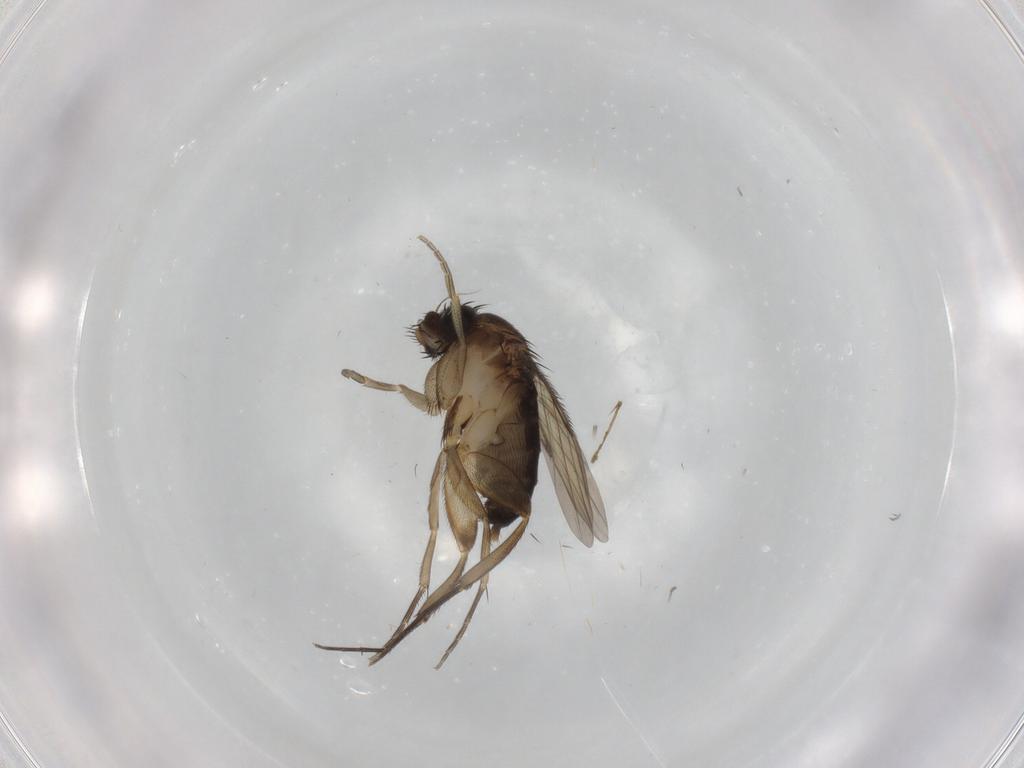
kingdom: Animalia
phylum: Arthropoda
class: Insecta
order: Diptera
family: Phoridae
